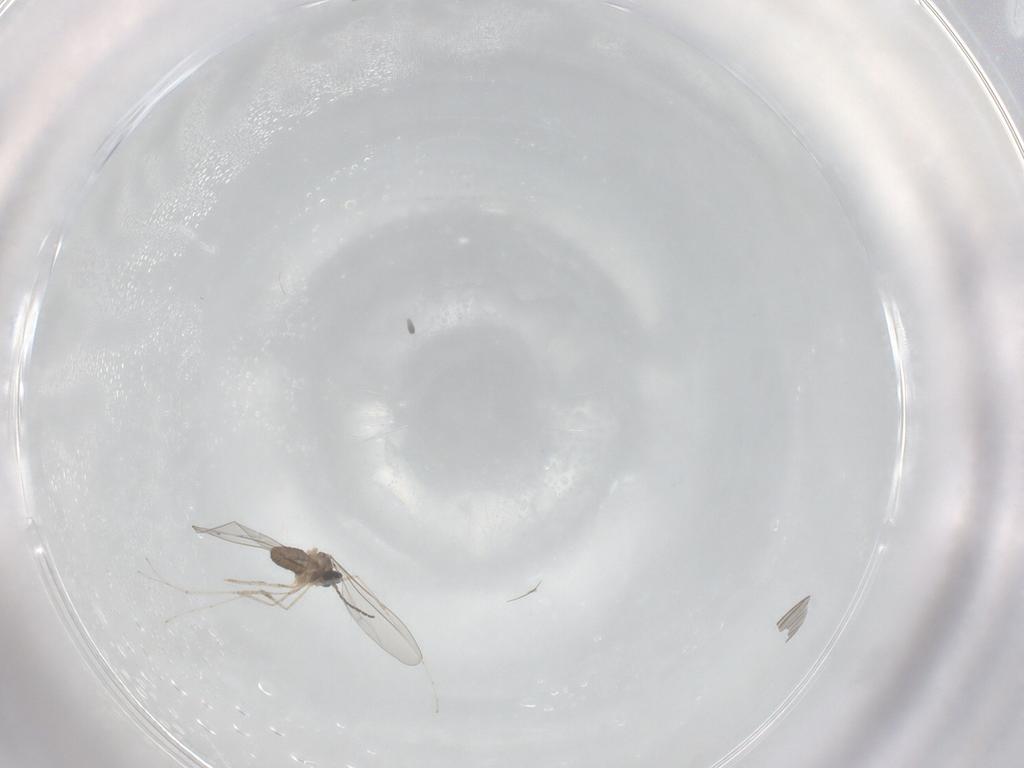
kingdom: Animalia
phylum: Arthropoda
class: Insecta
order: Diptera
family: Cecidomyiidae
